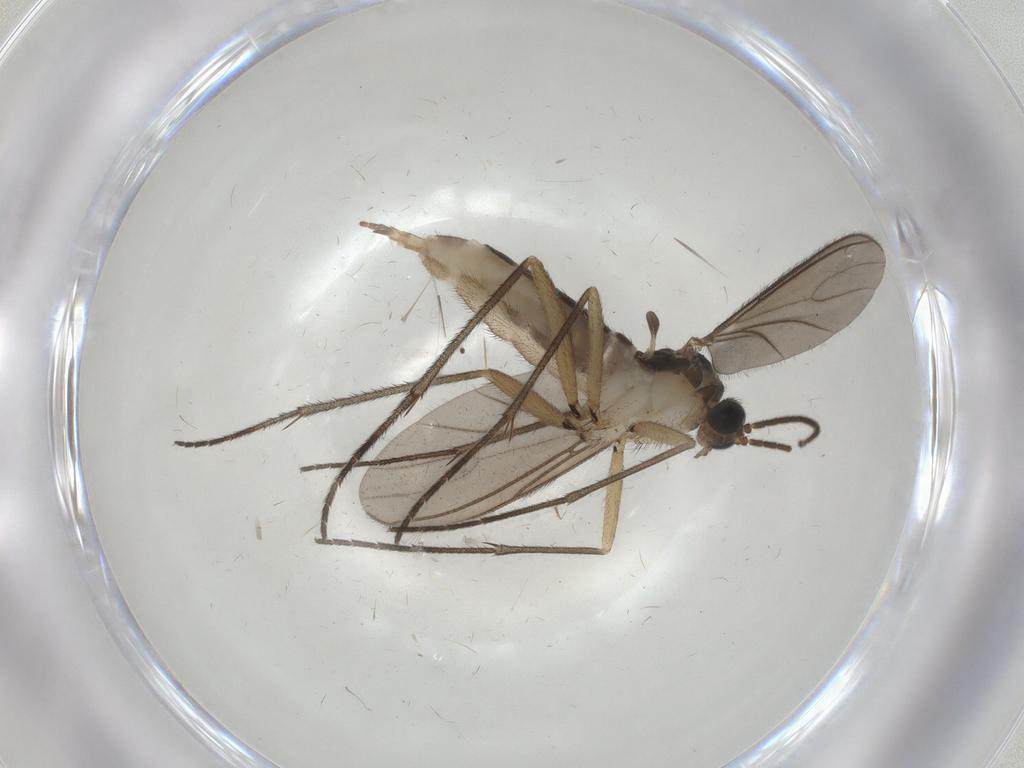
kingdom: Animalia
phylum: Arthropoda
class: Insecta
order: Diptera
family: Sciaridae
